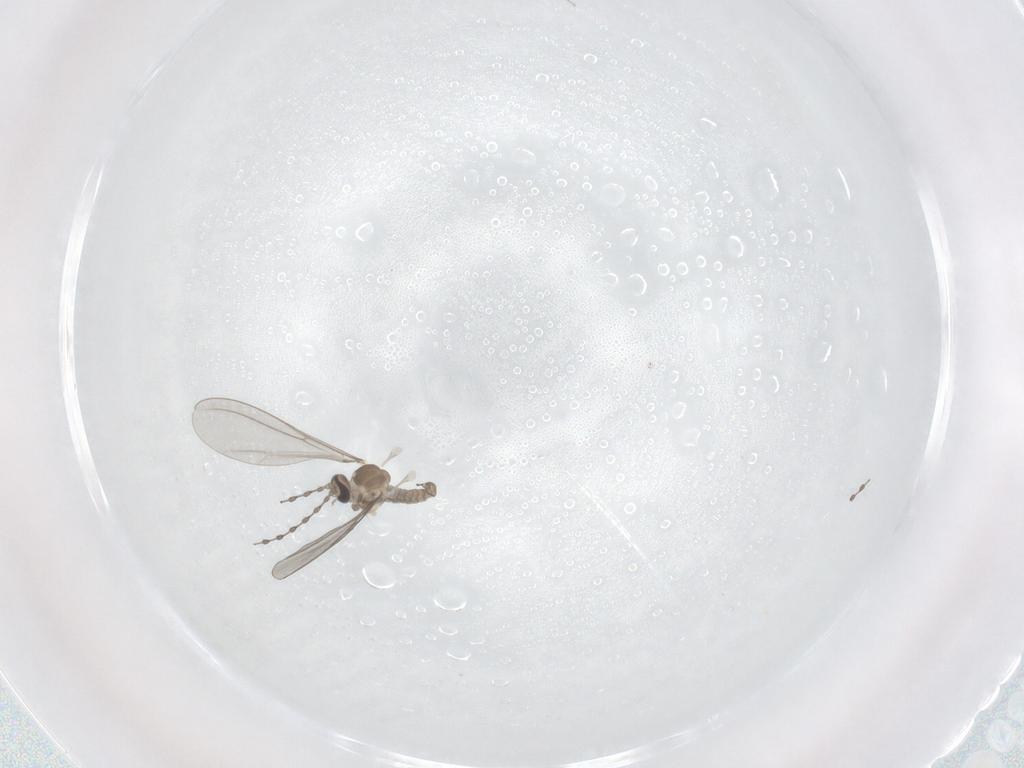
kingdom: Animalia
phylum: Arthropoda
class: Insecta
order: Diptera
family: Cecidomyiidae
